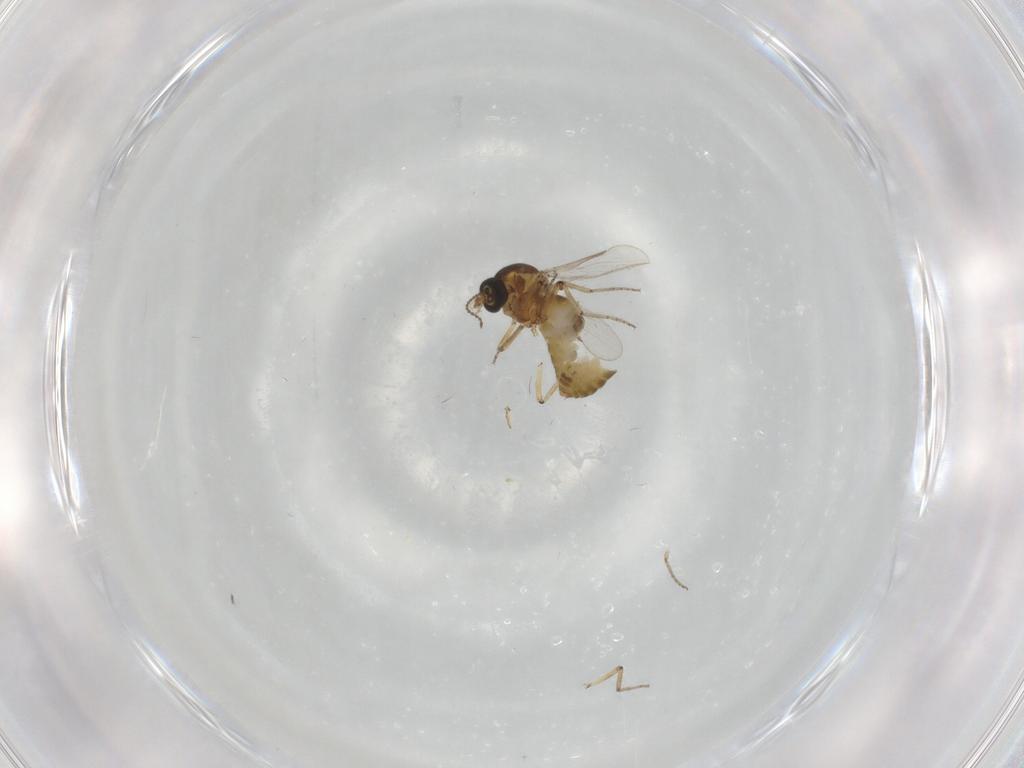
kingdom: Animalia
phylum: Arthropoda
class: Insecta
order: Diptera
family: Ceratopogonidae
